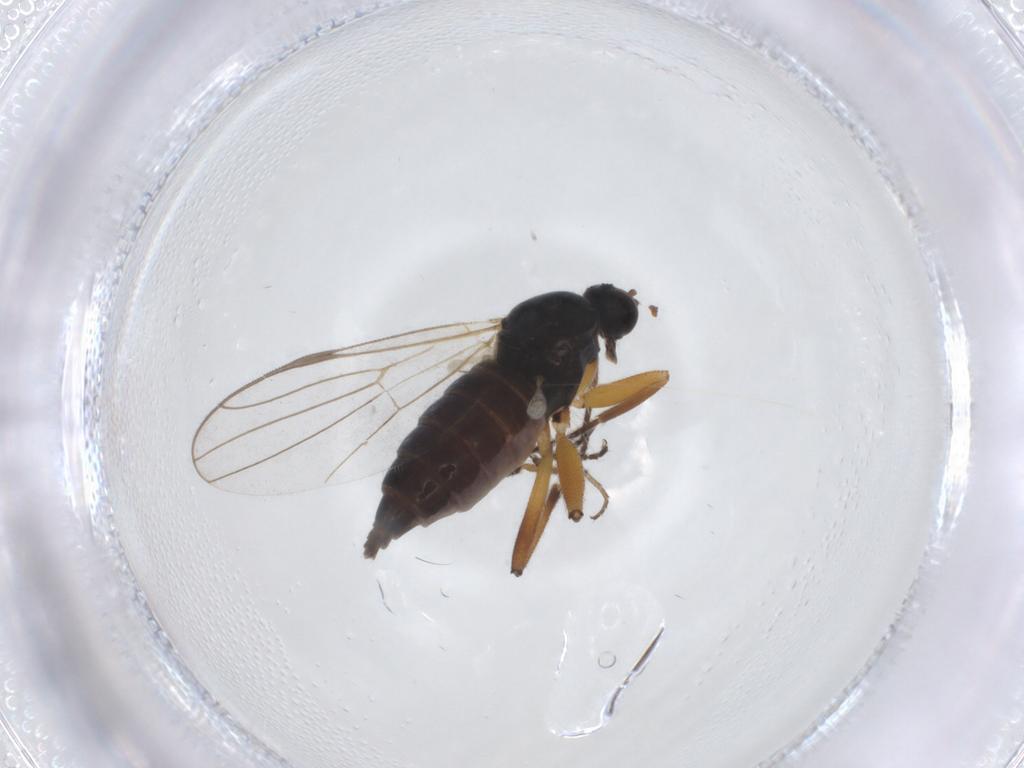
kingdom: Animalia
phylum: Arthropoda
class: Insecta
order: Diptera
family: Hybotidae
